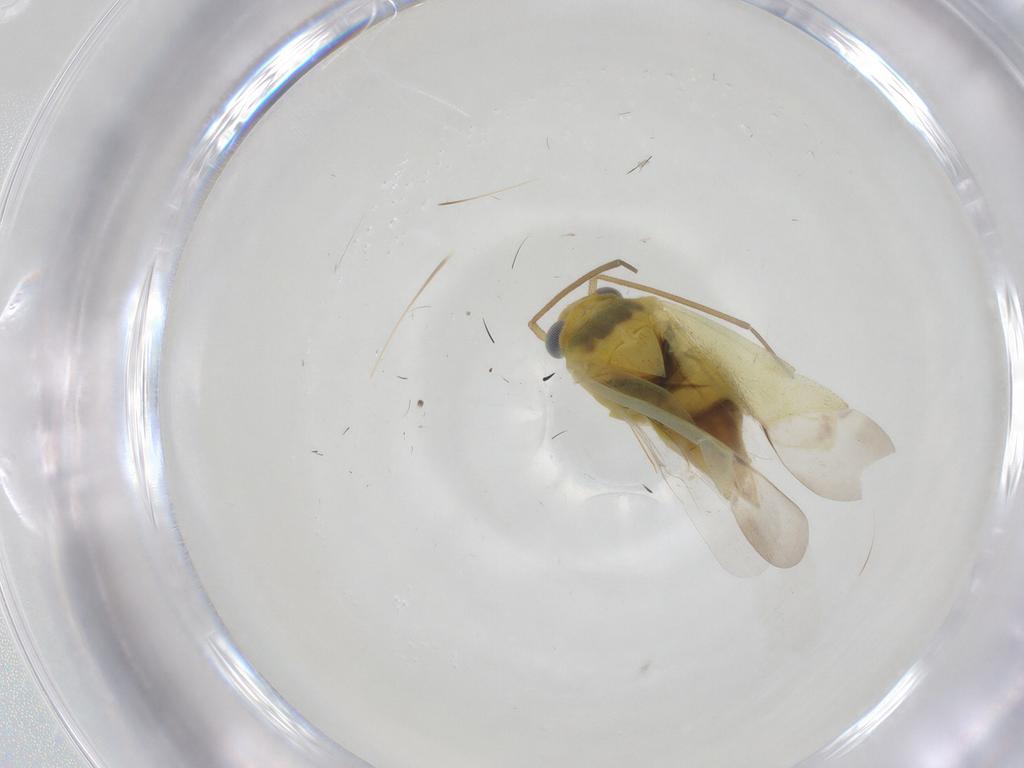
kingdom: Animalia
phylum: Arthropoda
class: Insecta
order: Hemiptera
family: Miridae
